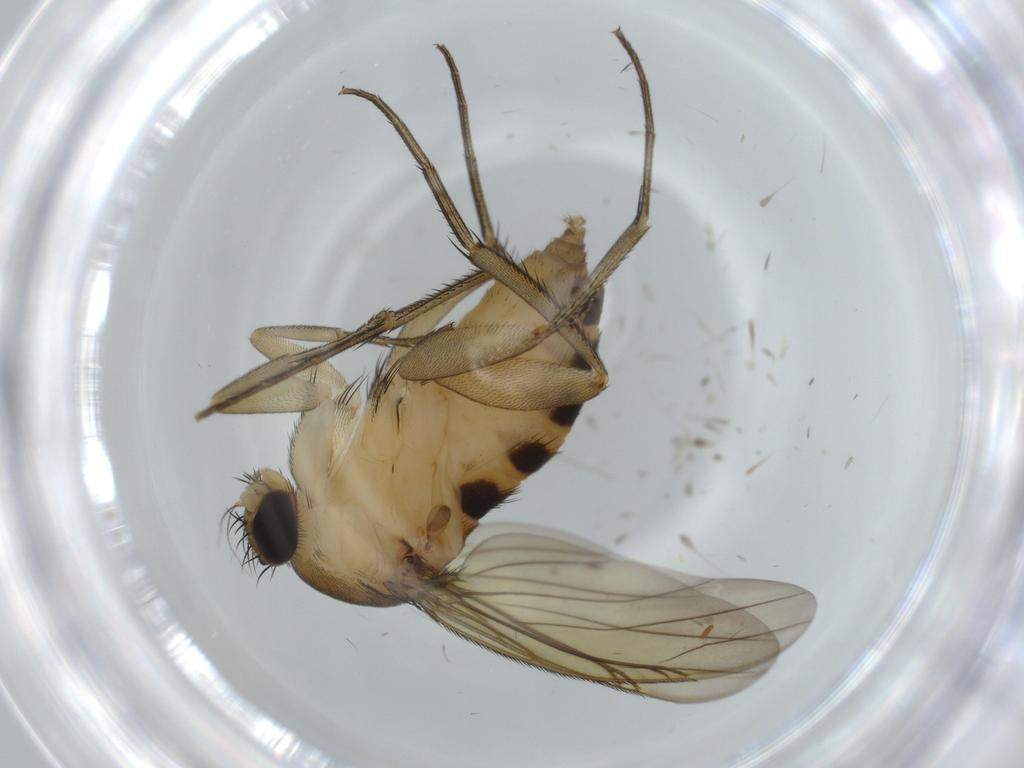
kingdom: Animalia
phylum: Arthropoda
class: Insecta
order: Diptera
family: Phoridae
